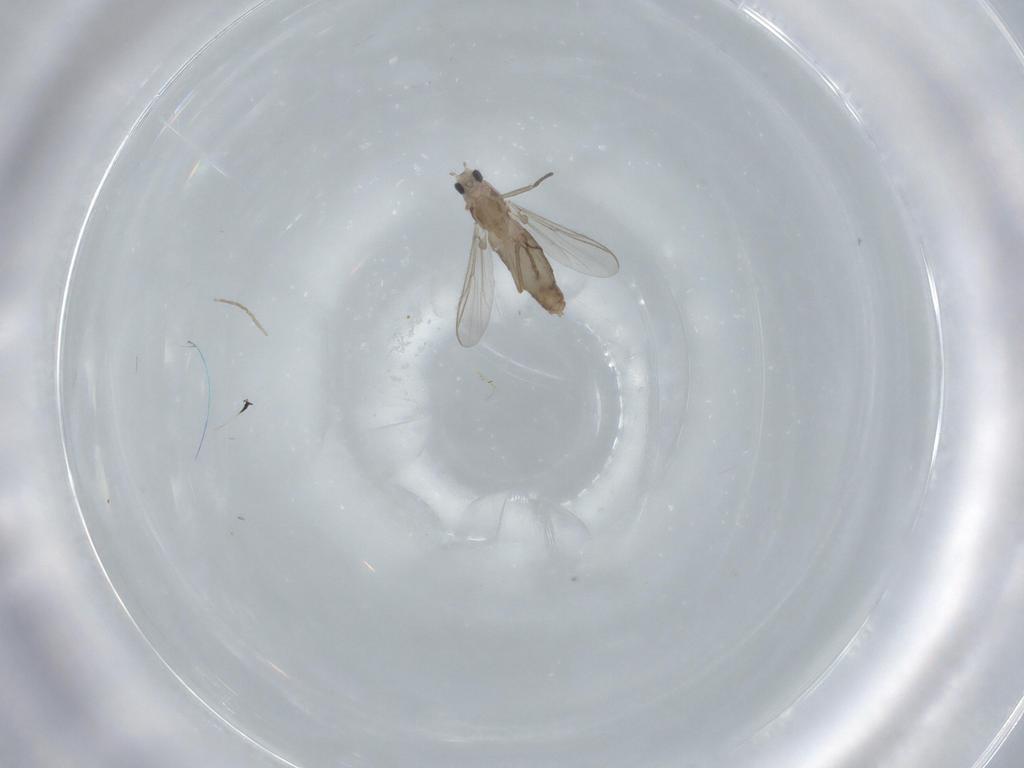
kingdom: Animalia
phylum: Arthropoda
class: Insecta
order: Diptera
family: Chironomidae
